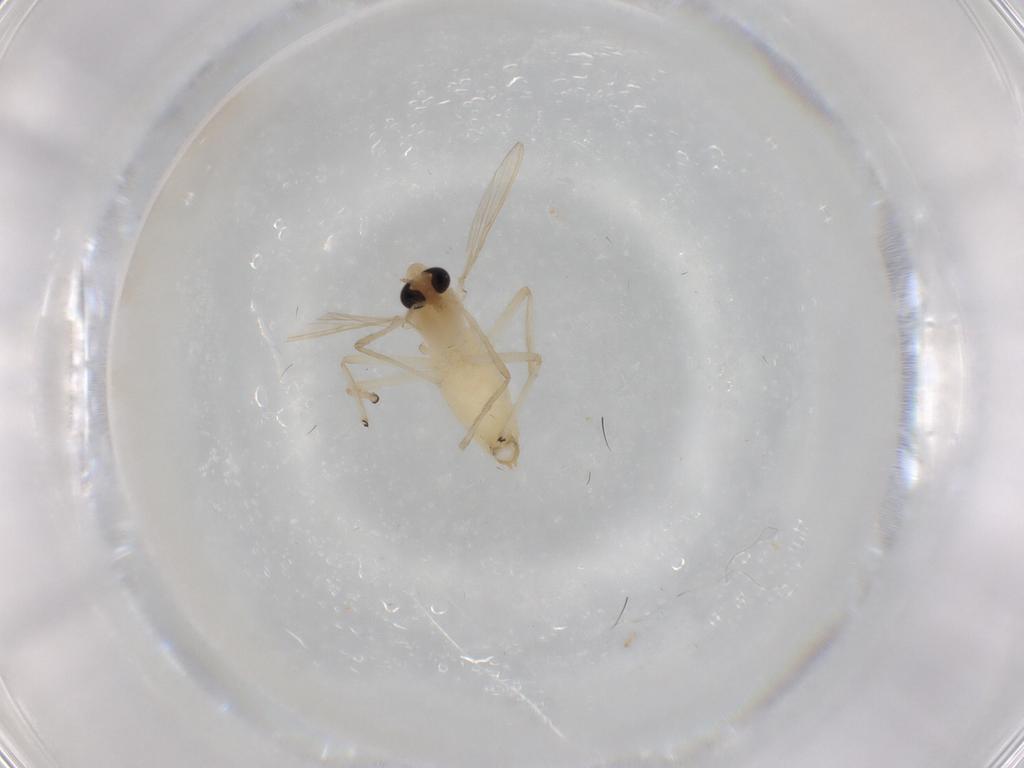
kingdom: Animalia
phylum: Arthropoda
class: Insecta
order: Diptera
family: Chironomidae
